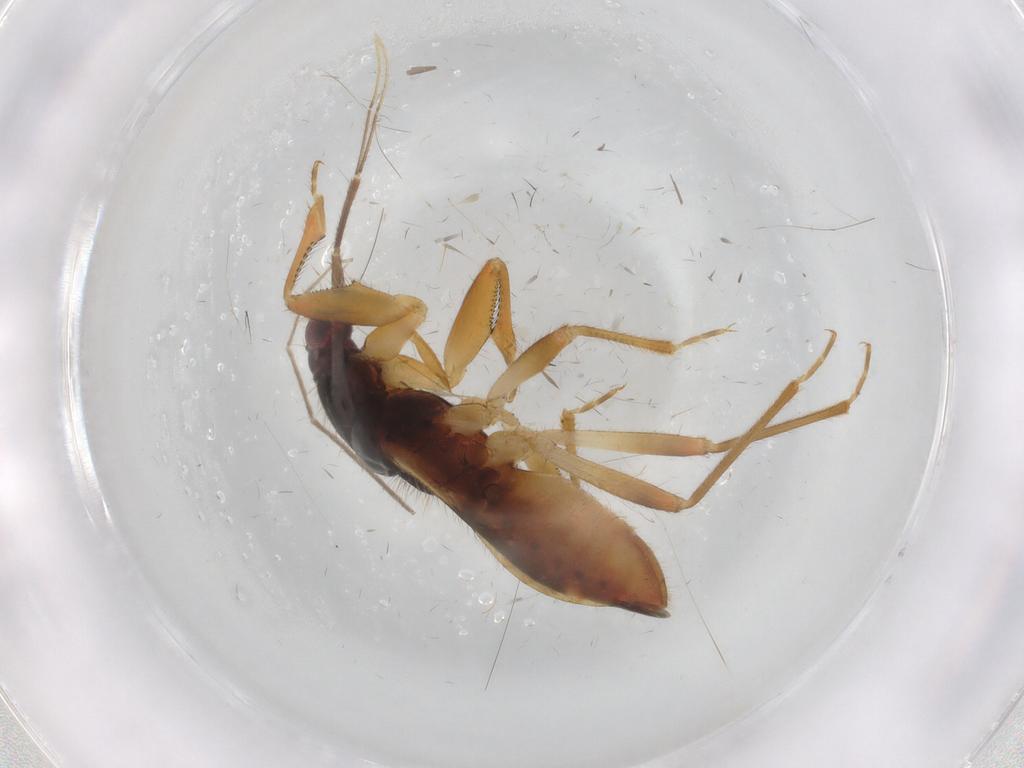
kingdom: Animalia
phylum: Arthropoda
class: Insecta
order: Hemiptera
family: Nabidae
